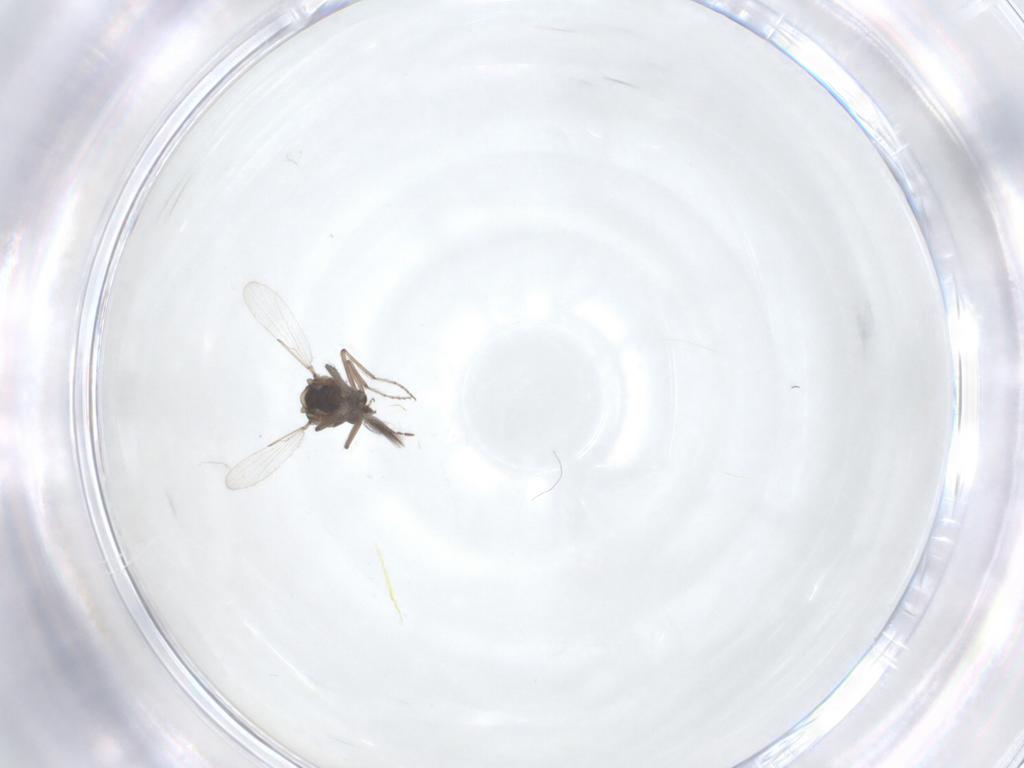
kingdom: Animalia
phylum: Arthropoda
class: Insecta
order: Diptera
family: Ceratopogonidae
